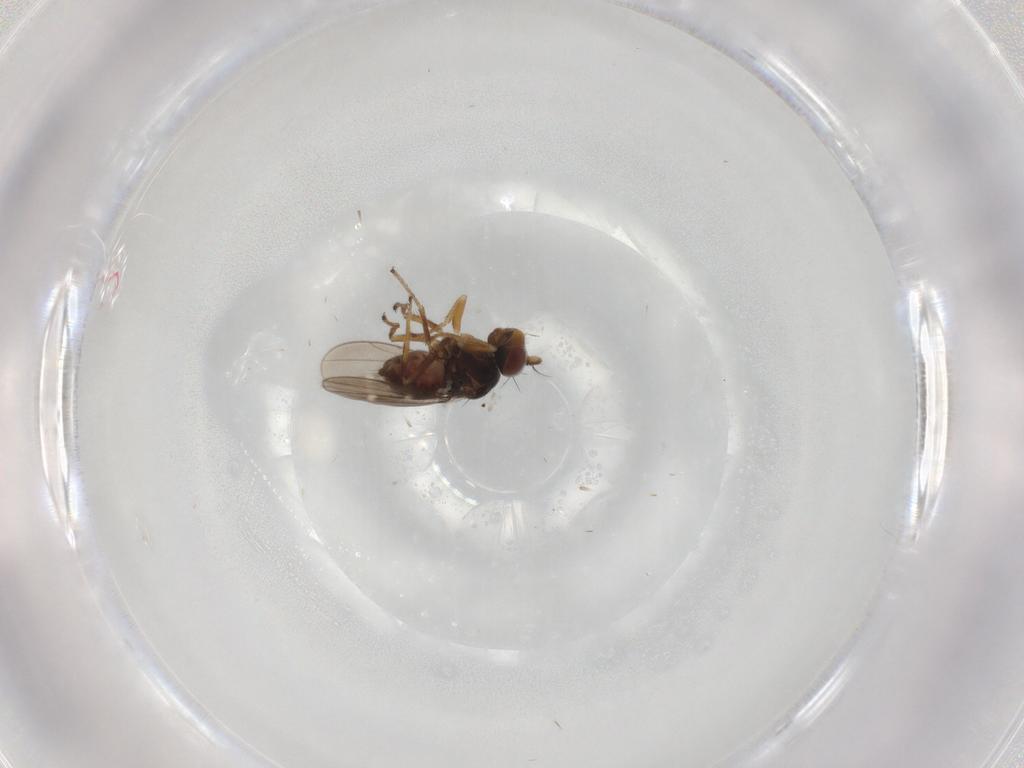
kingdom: Animalia
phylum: Arthropoda
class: Insecta
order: Diptera
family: Ephydridae
